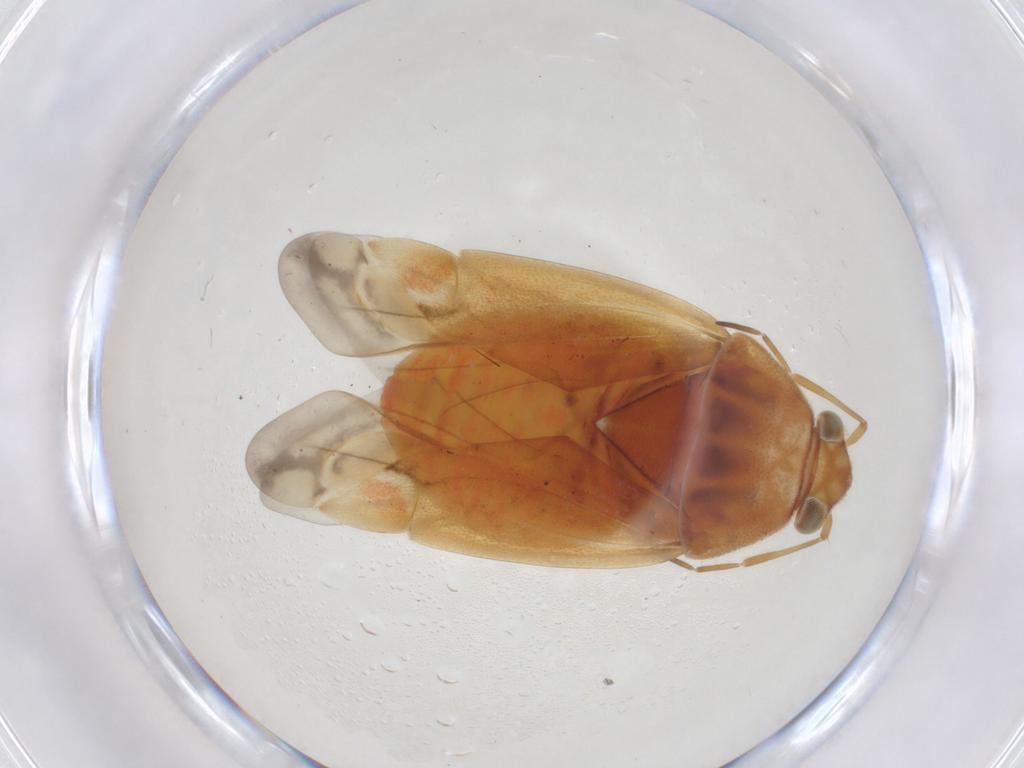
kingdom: Animalia
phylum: Arthropoda
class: Insecta
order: Hemiptera
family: Miridae
